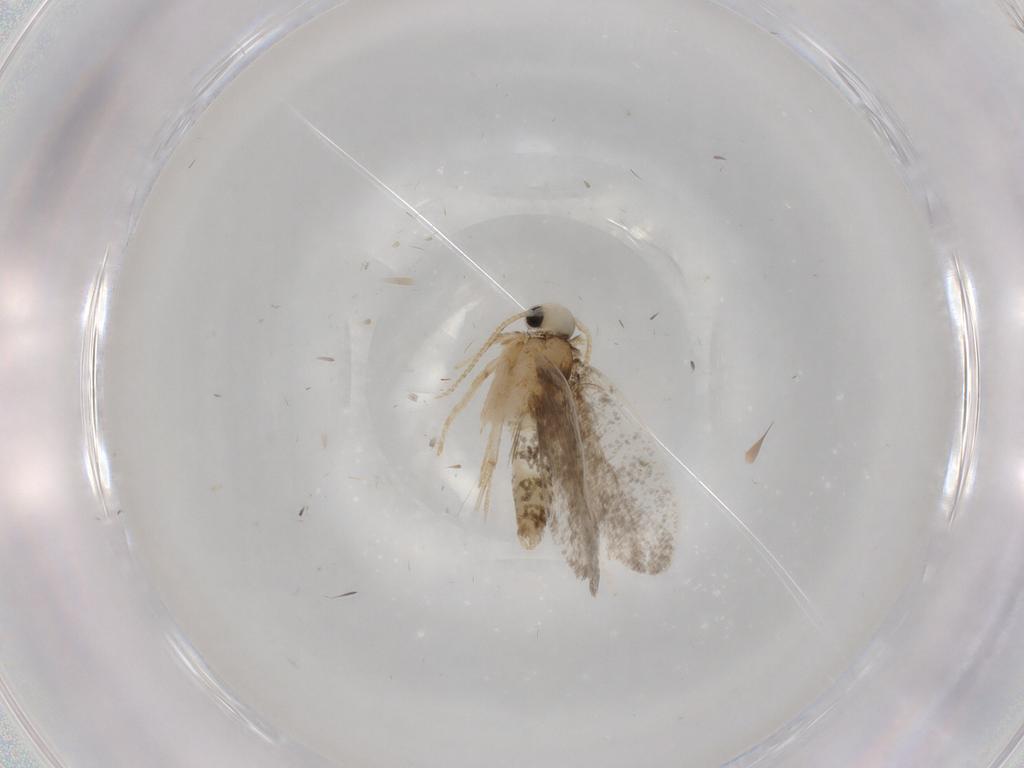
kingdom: Animalia
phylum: Arthropoda
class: Insecta
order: Lepidoptera
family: Psychidae
